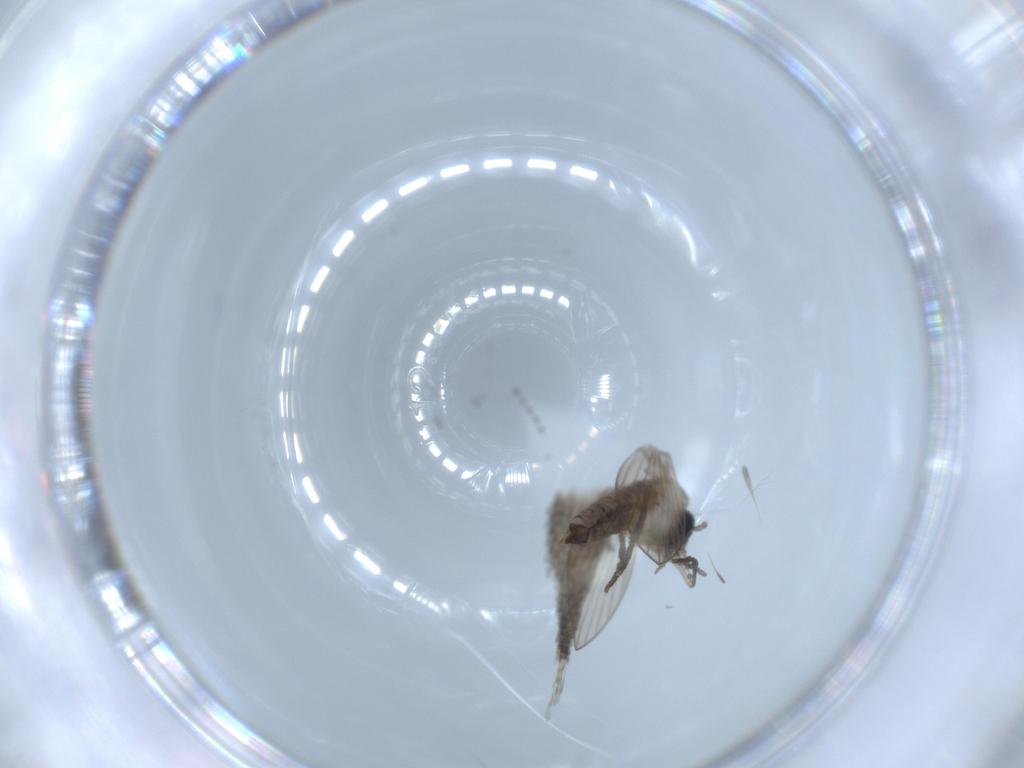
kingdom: Animalia
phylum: Arthropoda
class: Insecta
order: Diptera
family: Psychodidae
